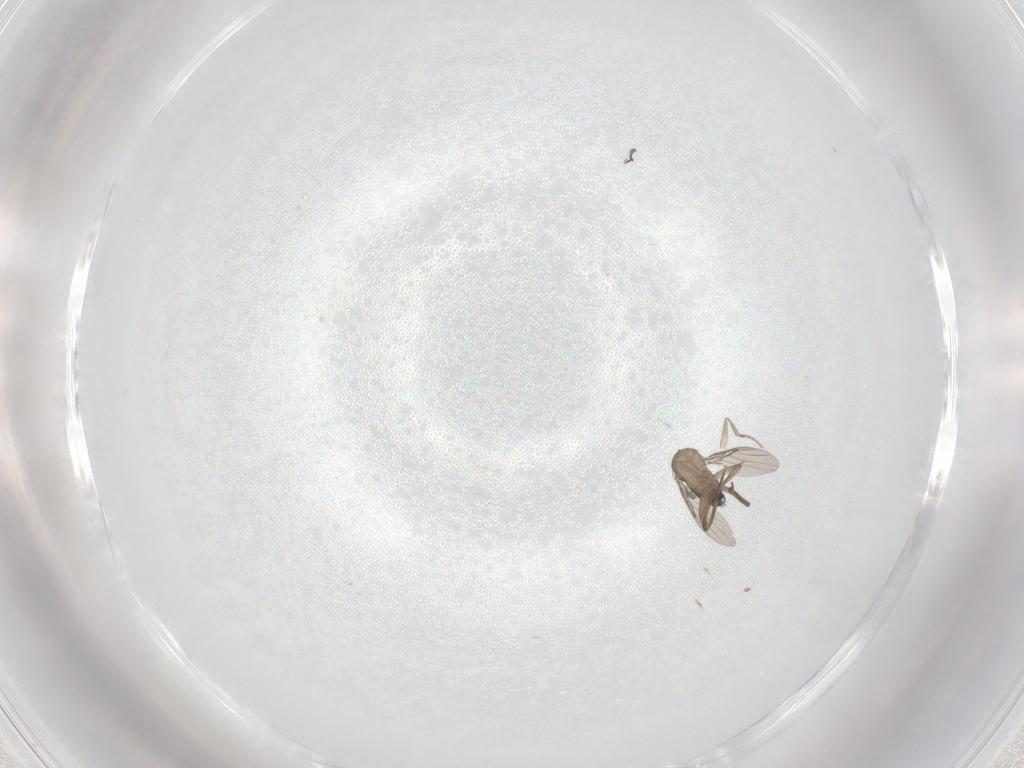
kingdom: Animalia
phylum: Arthropoda
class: Insecta
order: Diptera
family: Phoridae
